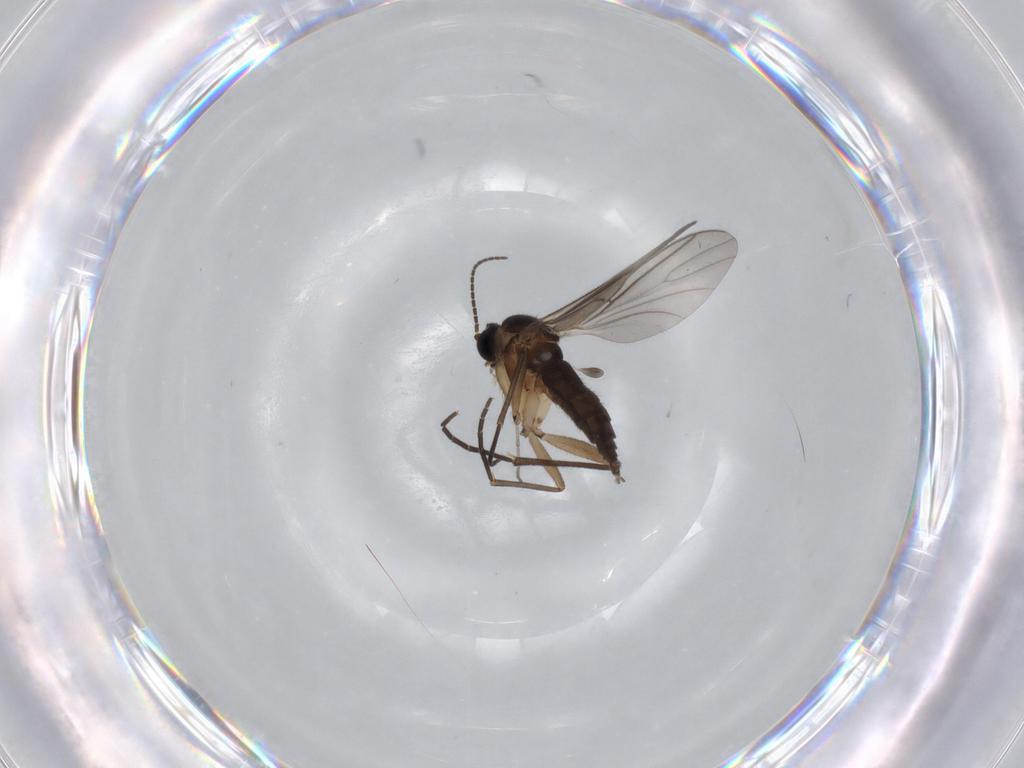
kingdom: Animalia
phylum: Arthropoda
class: Insecta
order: Diptera
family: Sciaridae
